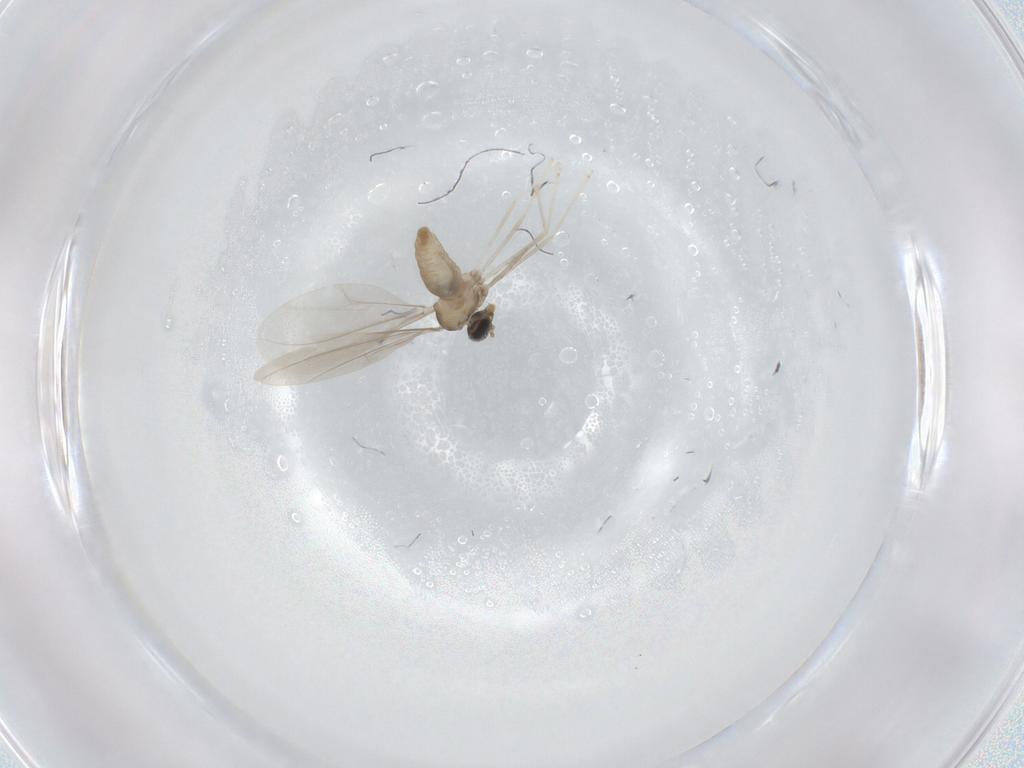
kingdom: Animalia
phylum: Arthropoda
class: Insecta
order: Diptera
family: Cecidomyiidae
